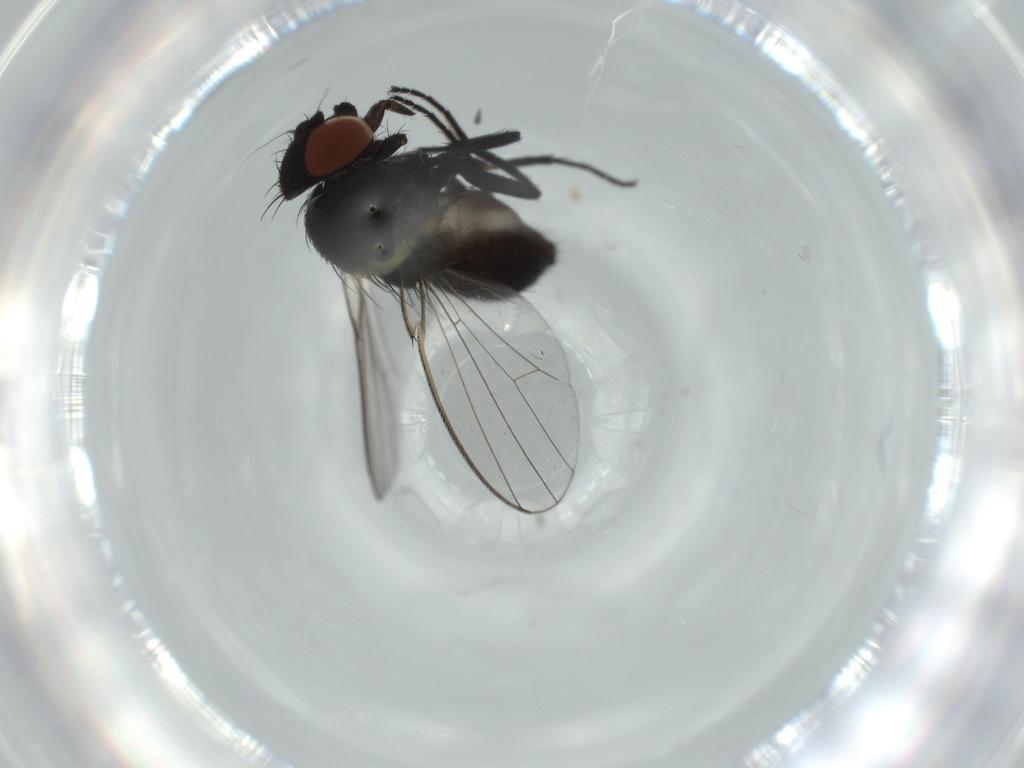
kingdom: Animalia
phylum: Arthropoda
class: Insecta
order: Diptera
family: Milichiidae
